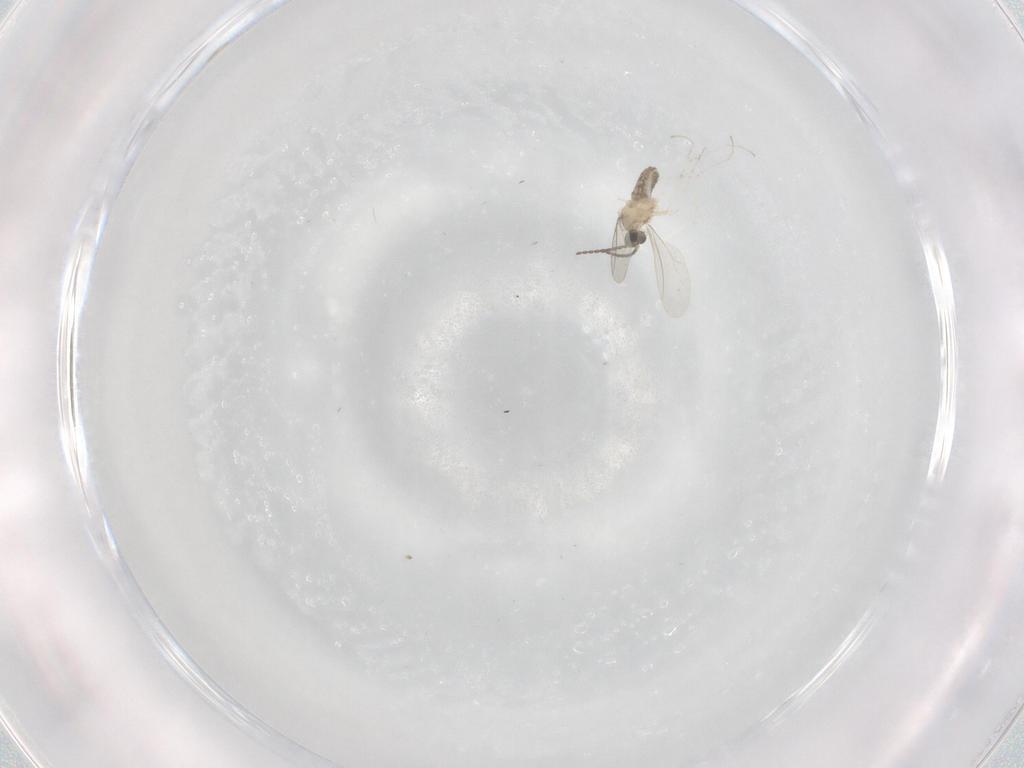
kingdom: Animalia
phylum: Arthropoda
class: Insecta
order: Diptera
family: Cecidomyiidae
